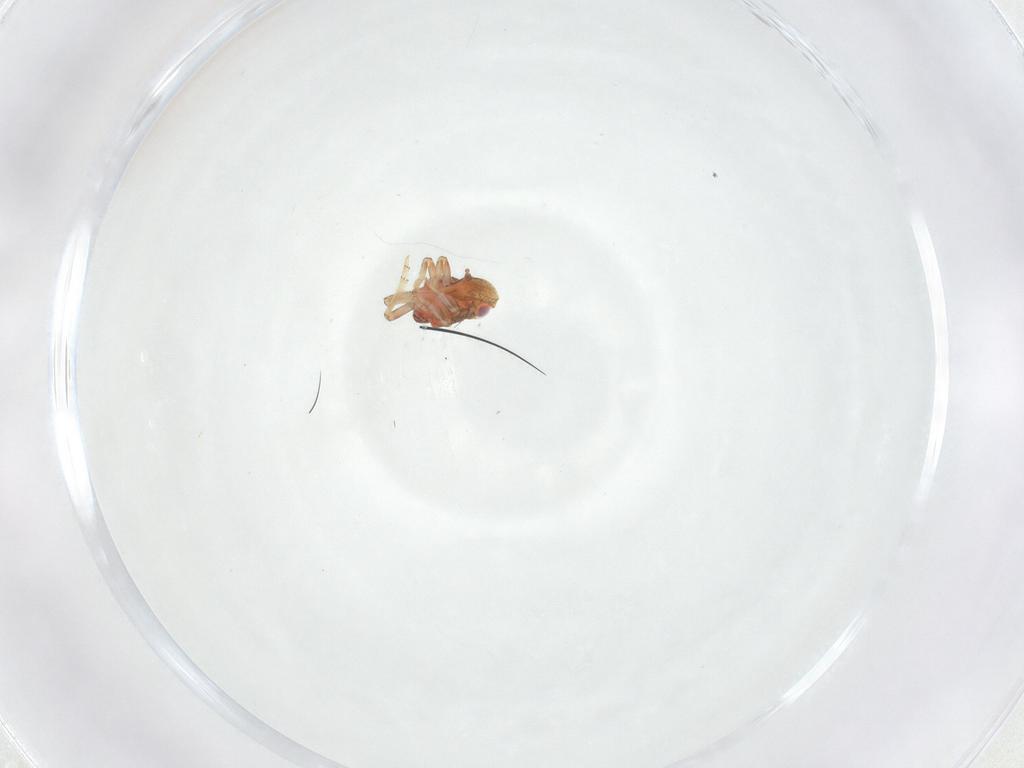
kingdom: Animalia
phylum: Arthropoda
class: Insecta
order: Hemiptera
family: Issidae
